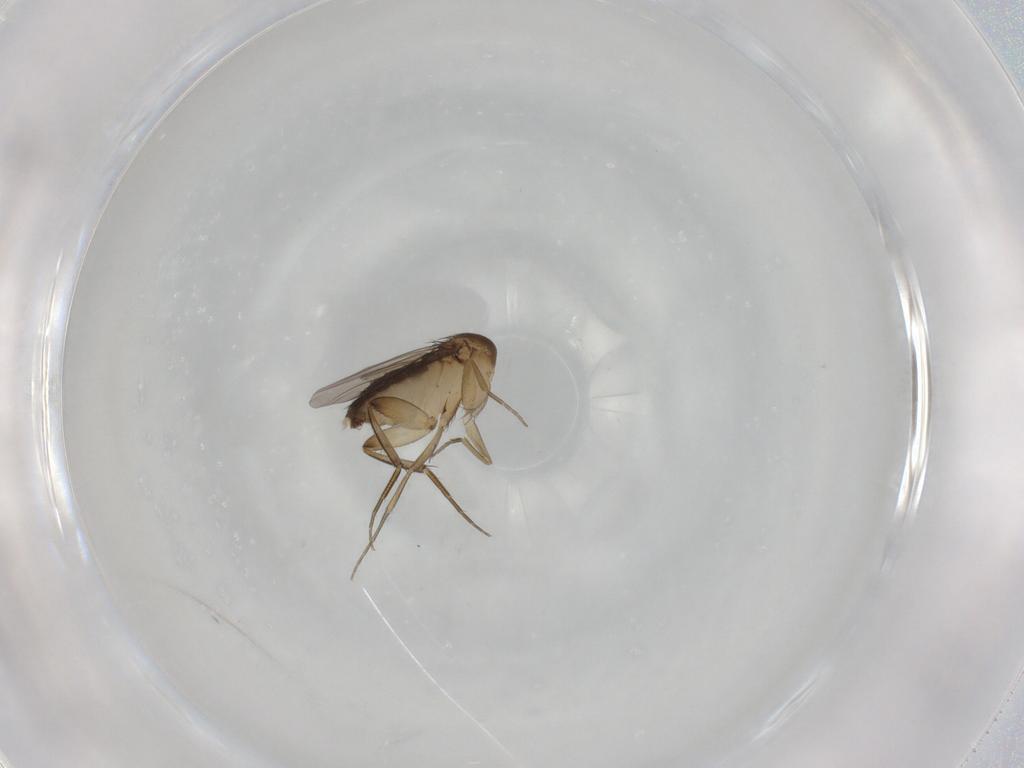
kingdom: Animalia
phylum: Arthropoda
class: Insecta
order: Diptera
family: Phoridae
